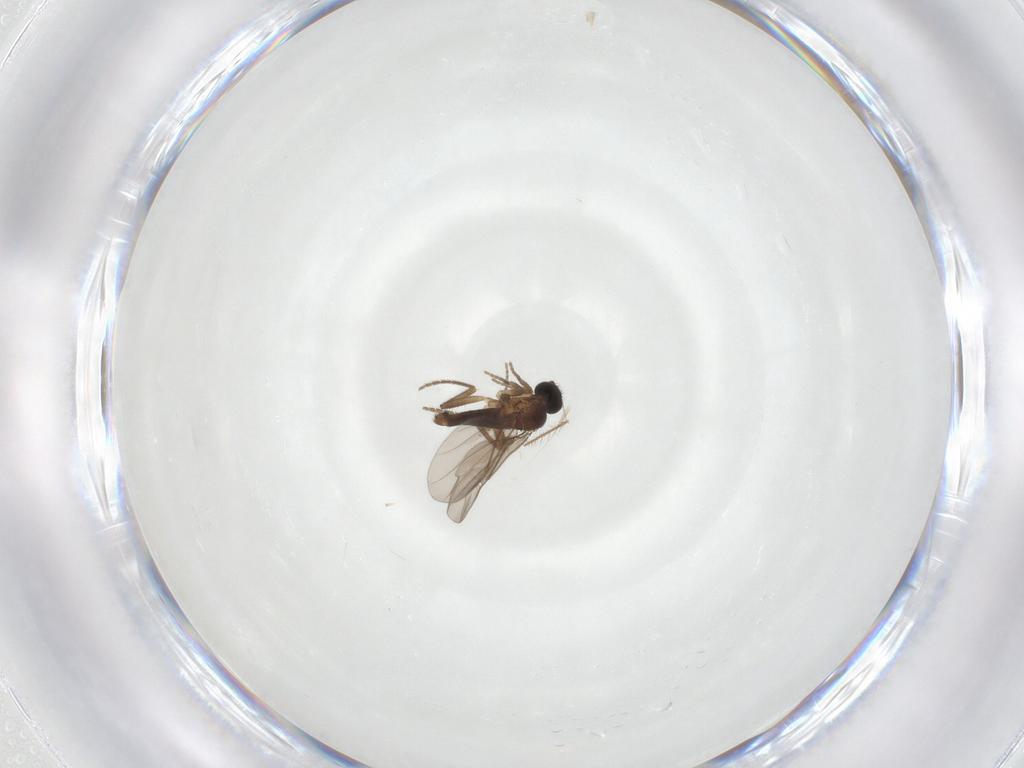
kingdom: Animalia
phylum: Arthropoda
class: Insecta
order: Diptera
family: Phoridae
